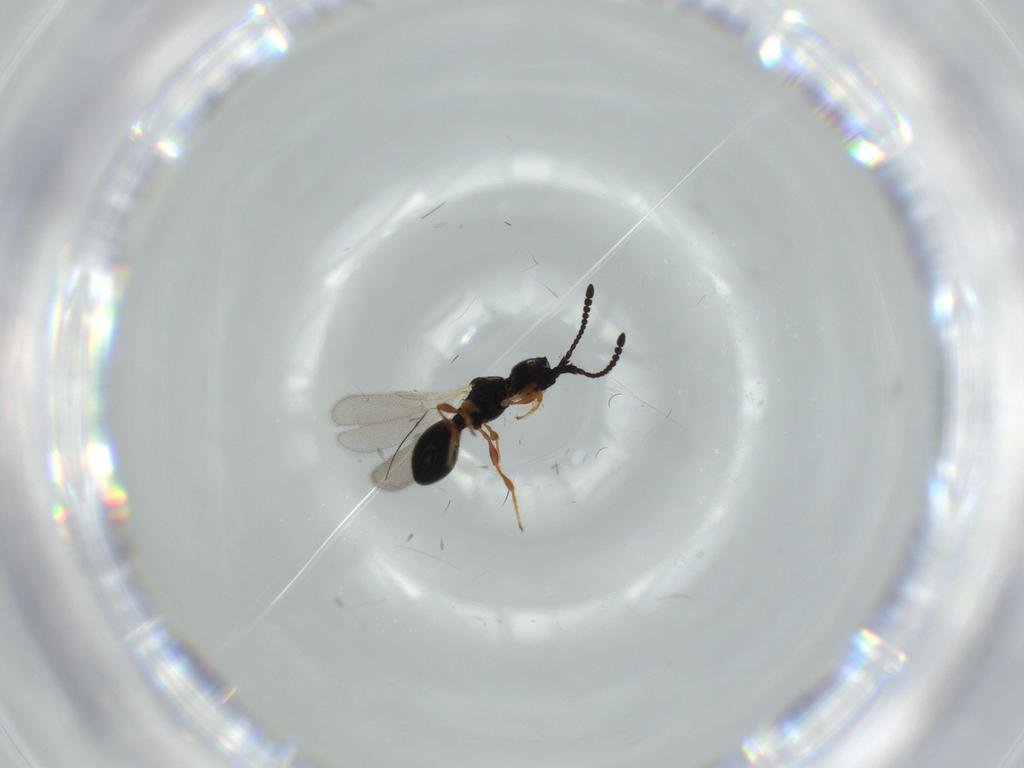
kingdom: Animalia
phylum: Arthropoda
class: Insecta
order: Hymenoptera
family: Diapriidae
